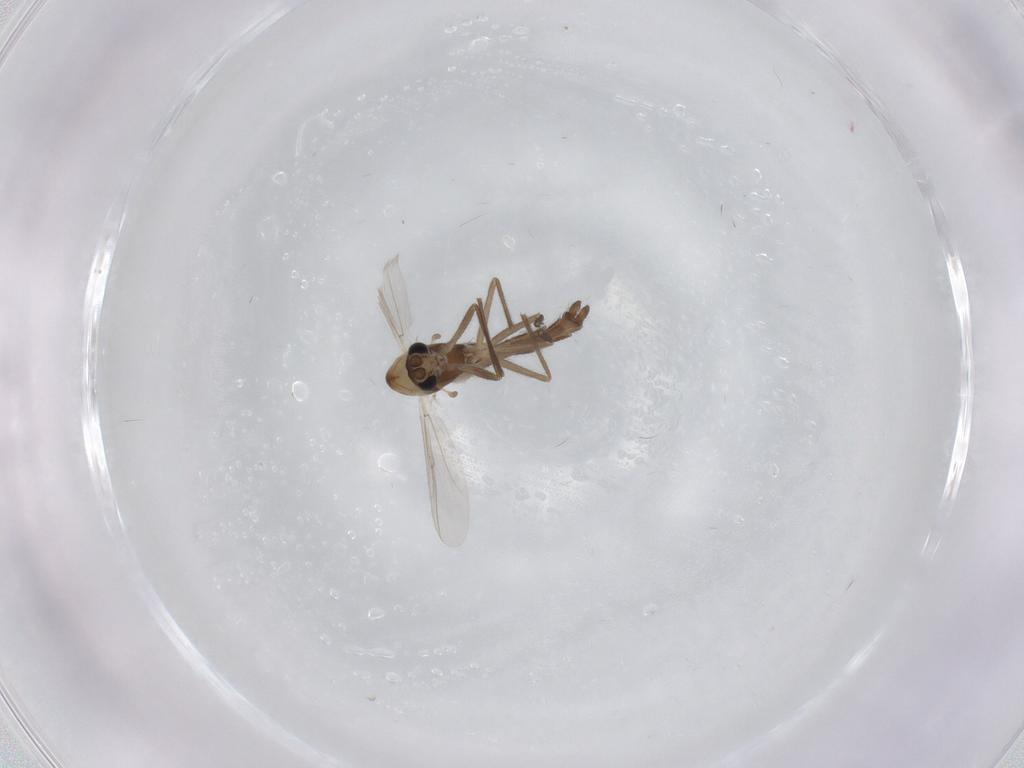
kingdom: Animalia
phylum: Arthropoda
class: Insecta
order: Diptera
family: Chironomidae
